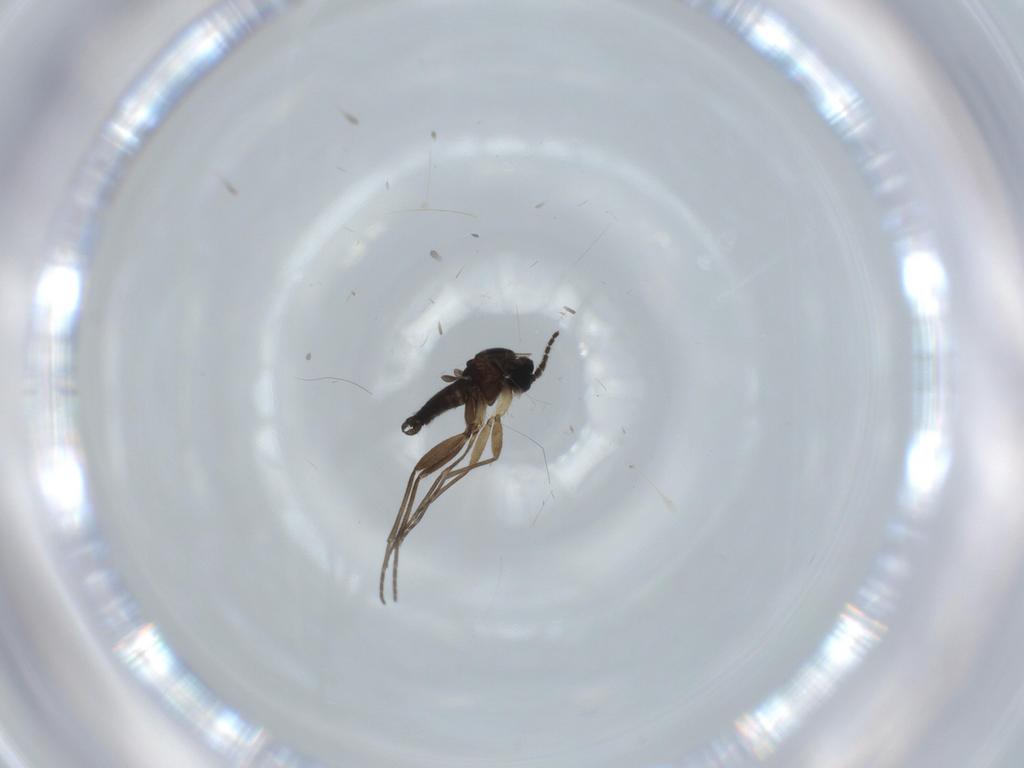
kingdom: Animalia
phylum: Arthropoda
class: Insecta
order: Diptera
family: Sciaridae
